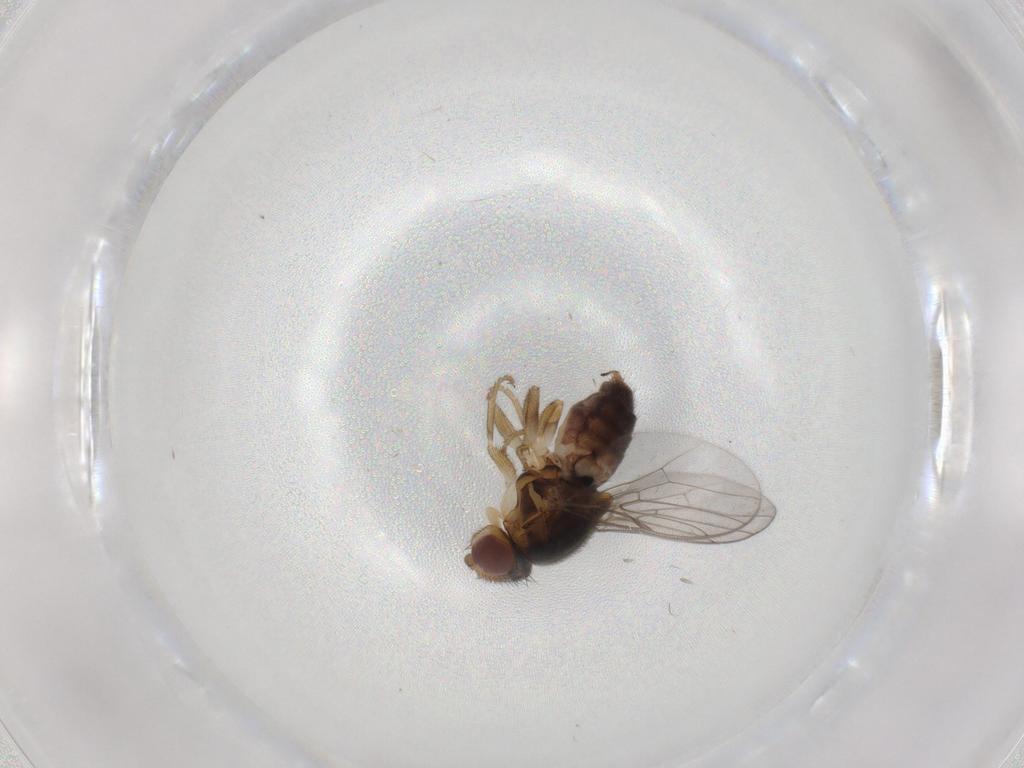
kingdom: Animalia
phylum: Arthropoda
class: Insecta
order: Diptera
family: Chloropidae
